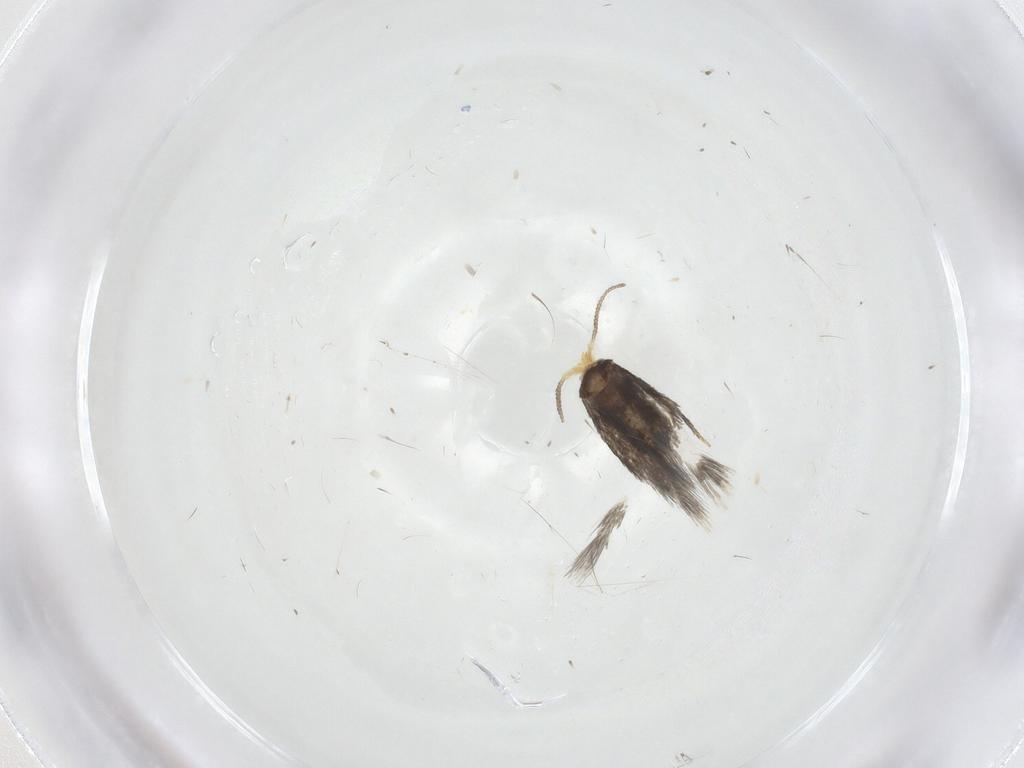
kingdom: Animalia
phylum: Arthropoda
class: Insecta
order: Lepidoptera
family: Nepticulidae
